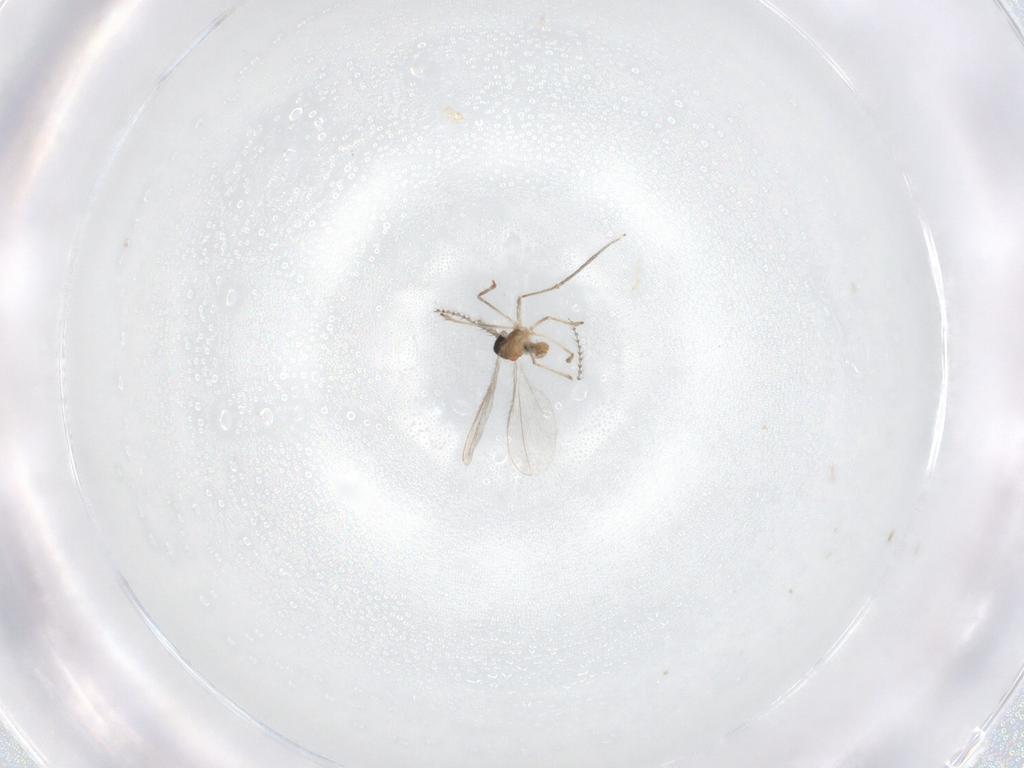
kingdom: Animalia
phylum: Arthropoda
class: Insecta
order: Diptera
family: Cecidomyiidae
